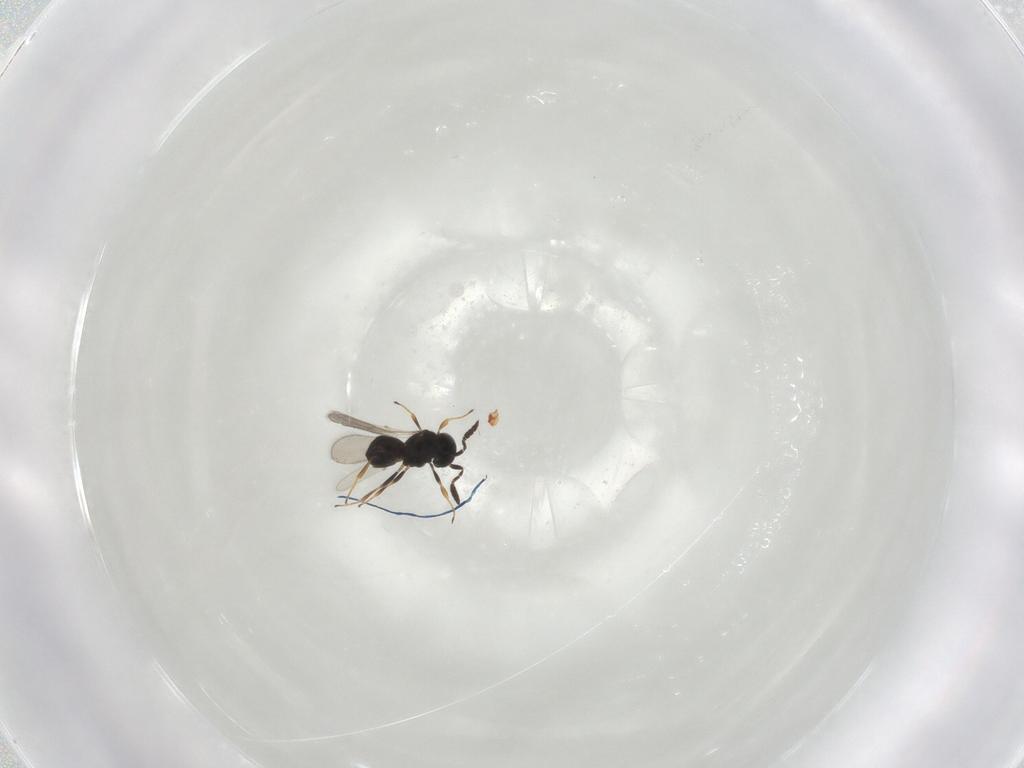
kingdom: Animalia
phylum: Arthropoda
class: Insecta
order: Hymenoptera
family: Scelionidae
